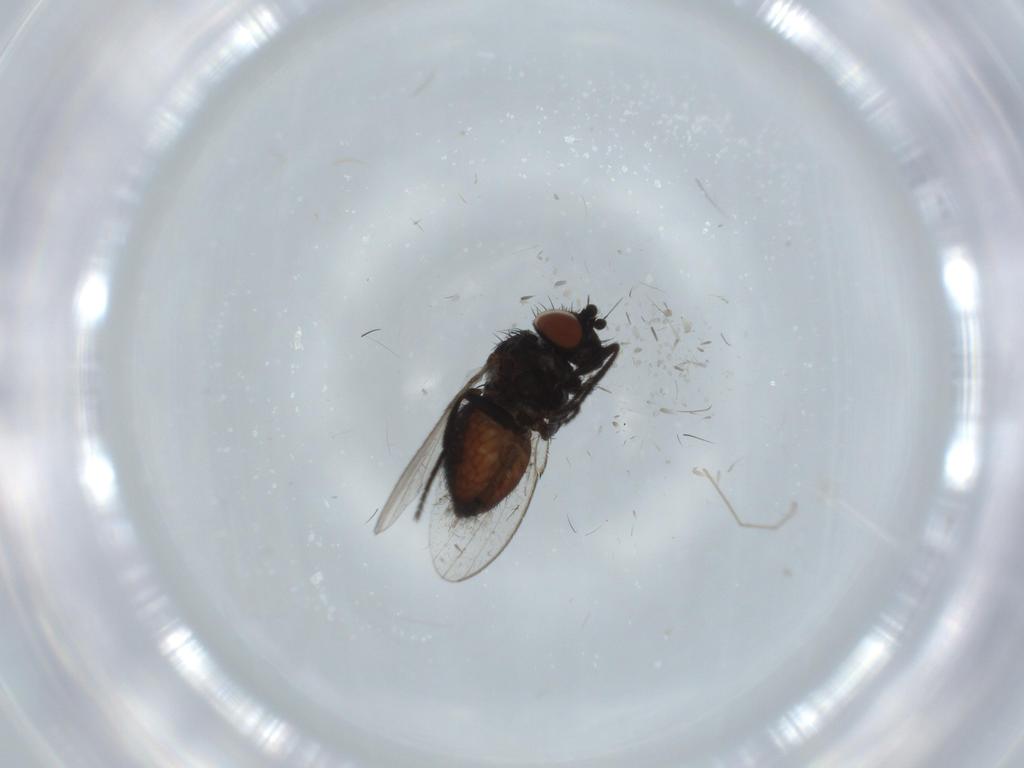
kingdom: Animalia
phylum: Arthropoda
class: Insecta
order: Diptera
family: Milichiidae
